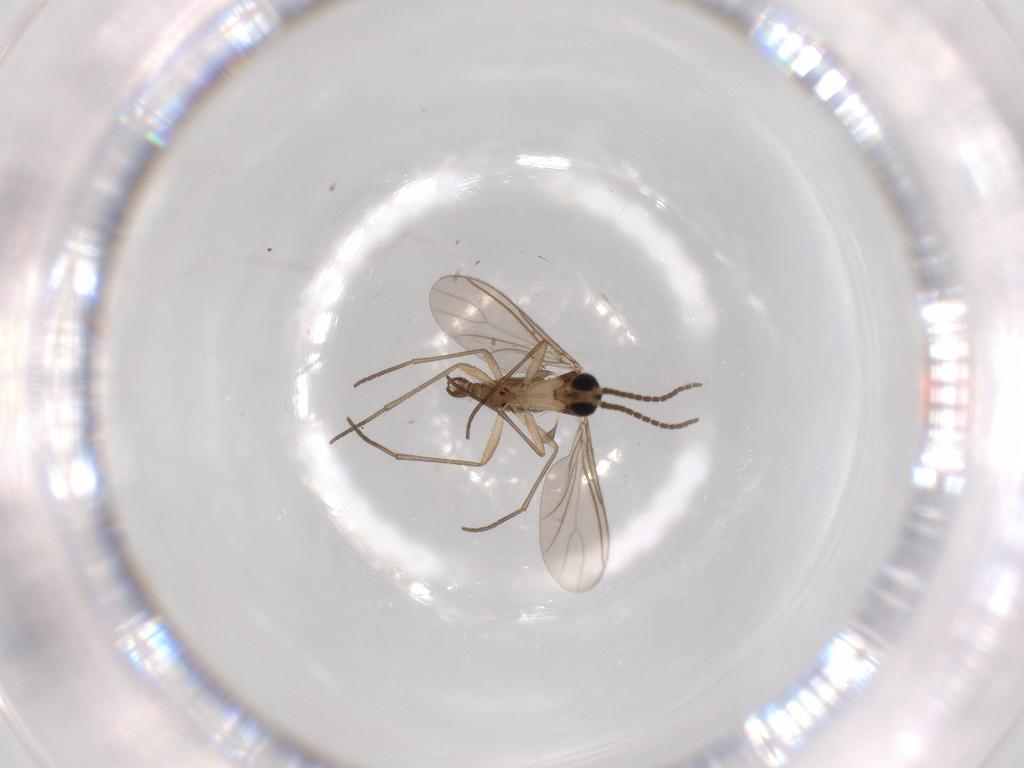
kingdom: Animalia
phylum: Arthropoda
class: Insecta
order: Diptera
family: Sciaridae
